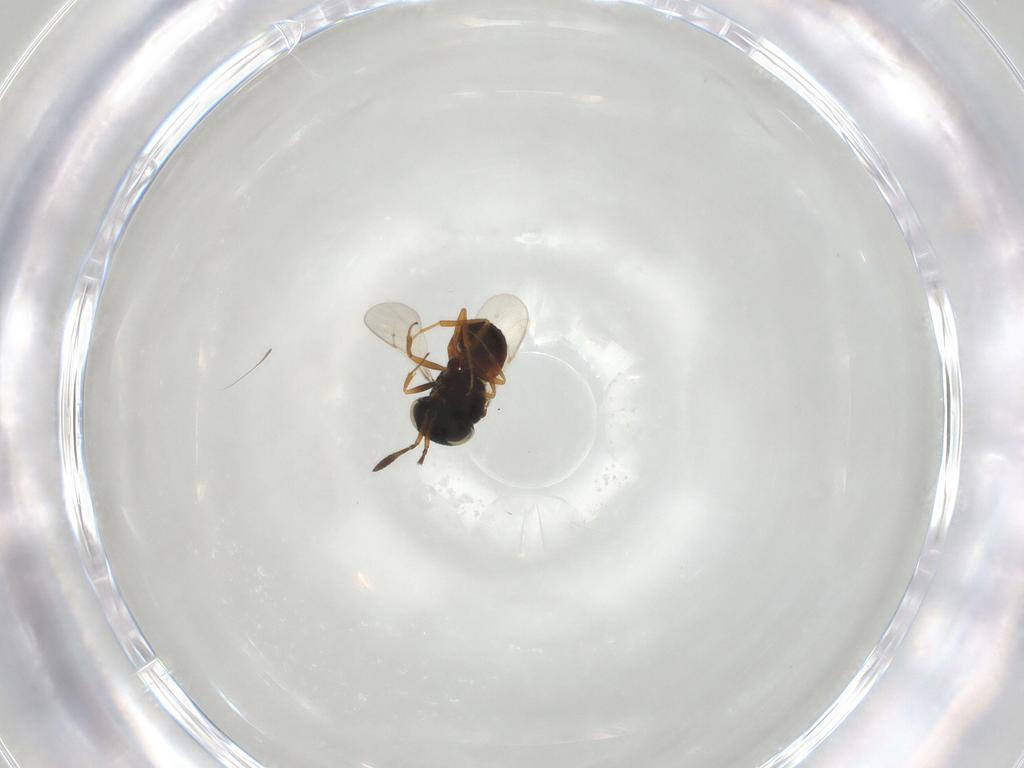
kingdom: Animalia
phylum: Arthropoda
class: Insecta
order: Hymenoptera
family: Scelionidae
